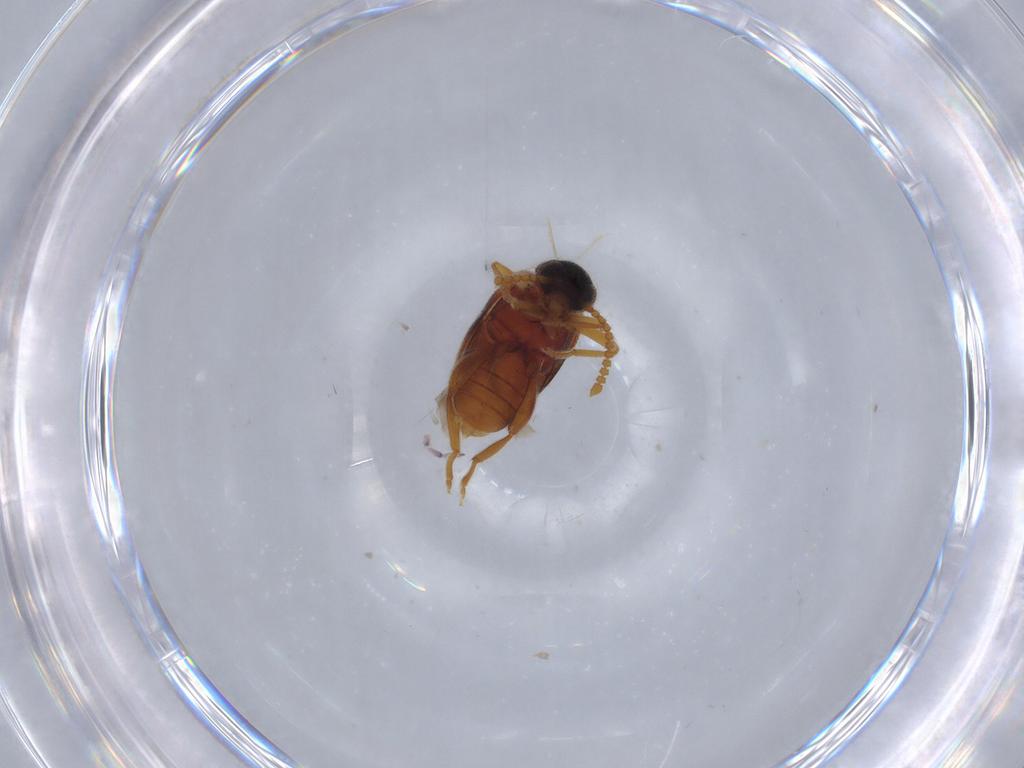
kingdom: Animalia
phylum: Arthropoda
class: Insecta
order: Coleoptera
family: Aderidae
